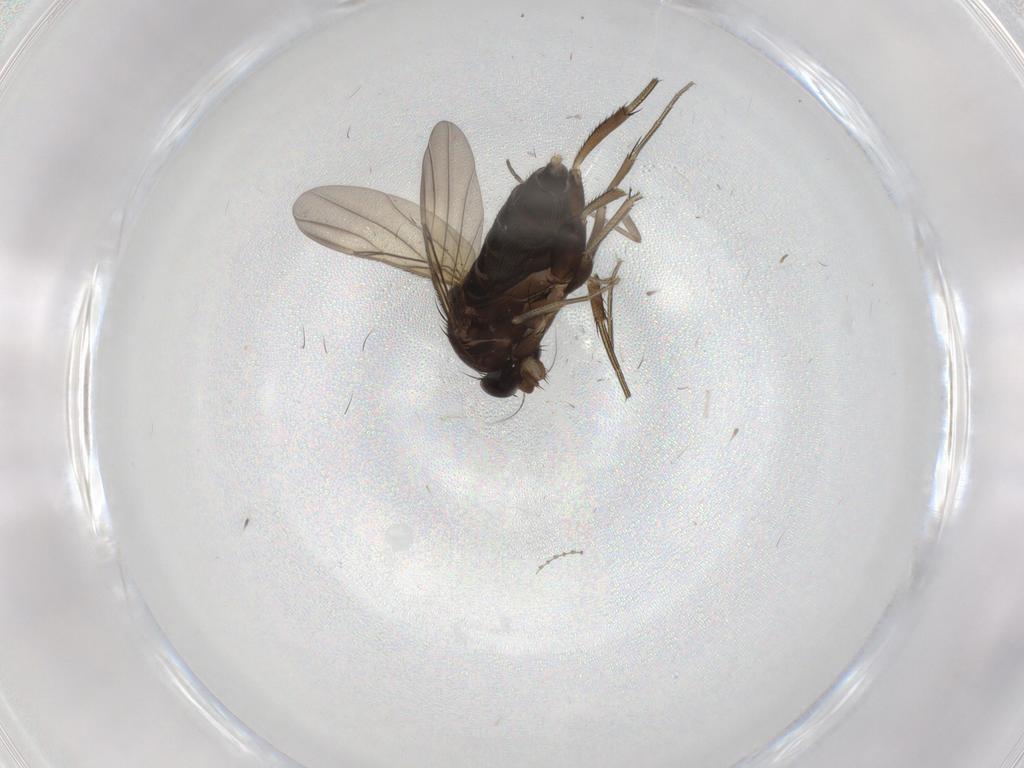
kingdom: Animalia
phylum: Arthropoda
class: Insecta
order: Diptera
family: Phoridae
